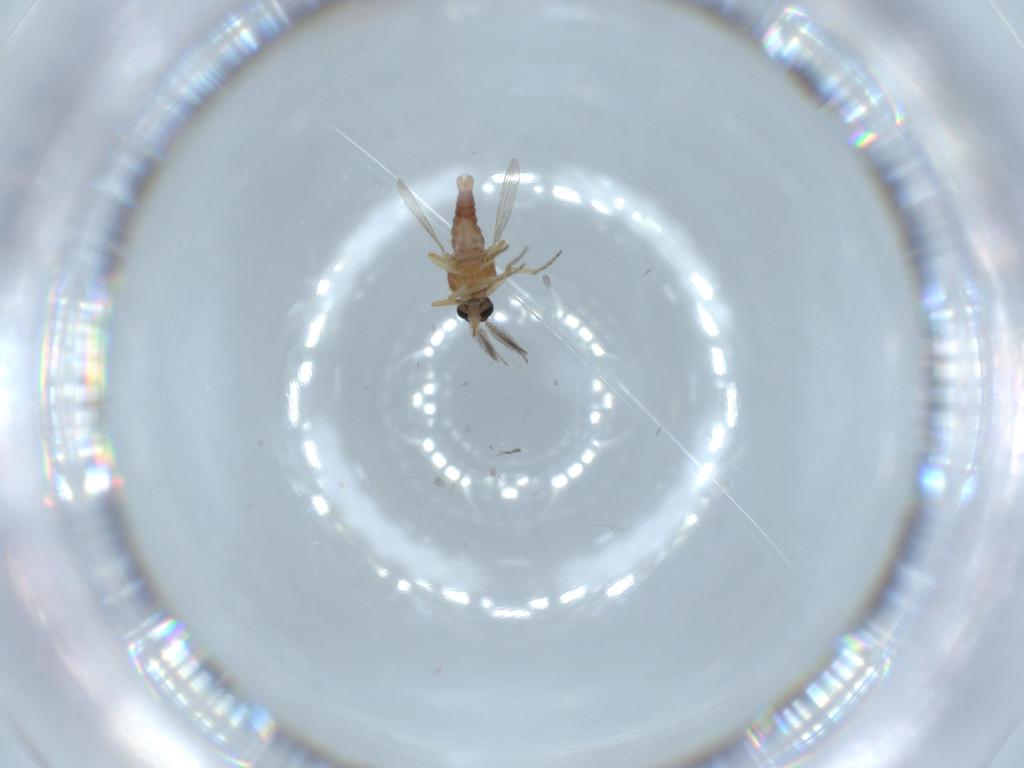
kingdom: Animalia
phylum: Arthropoda
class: Insecta
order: Diptera
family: Ceratopogonidae
